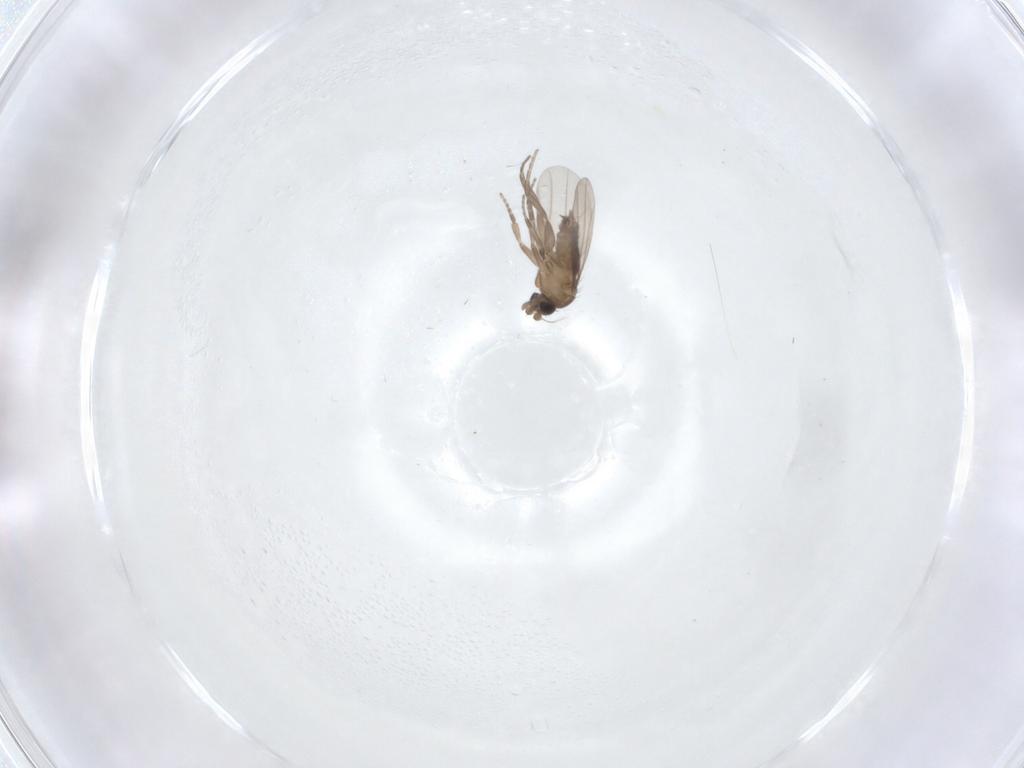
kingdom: Animalia
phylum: Arthropoda
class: Insecta
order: Diptera
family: Phoridae
